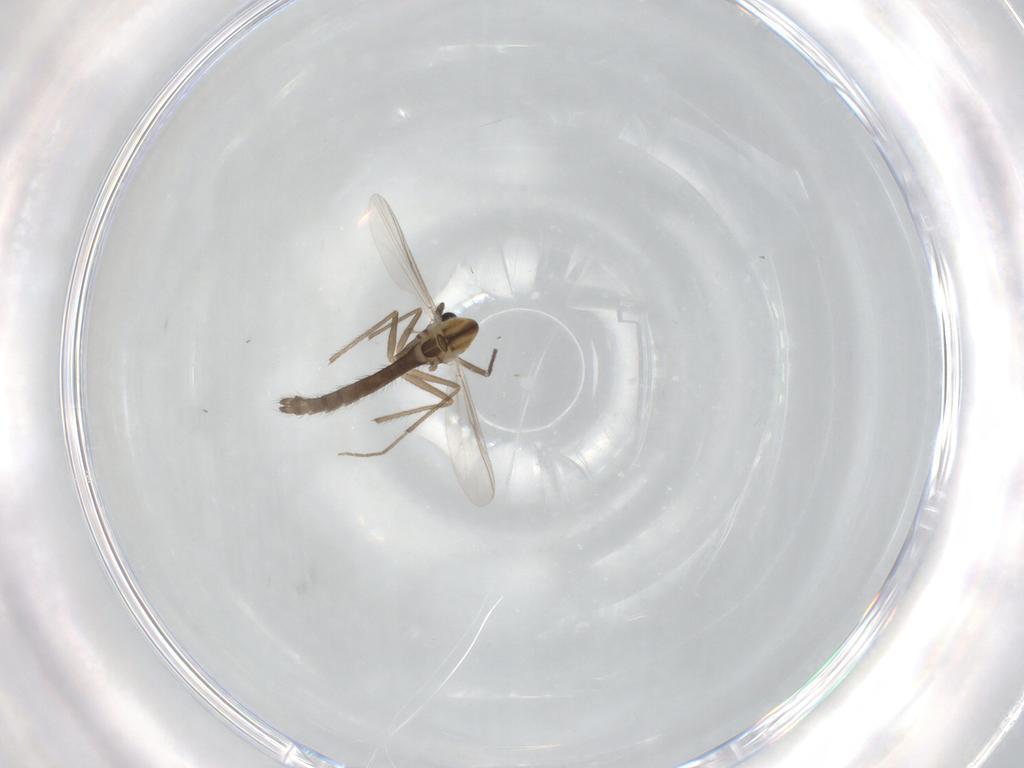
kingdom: Animalia
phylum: Arthropoda
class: Insecta
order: Diptera
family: Chironomidae
